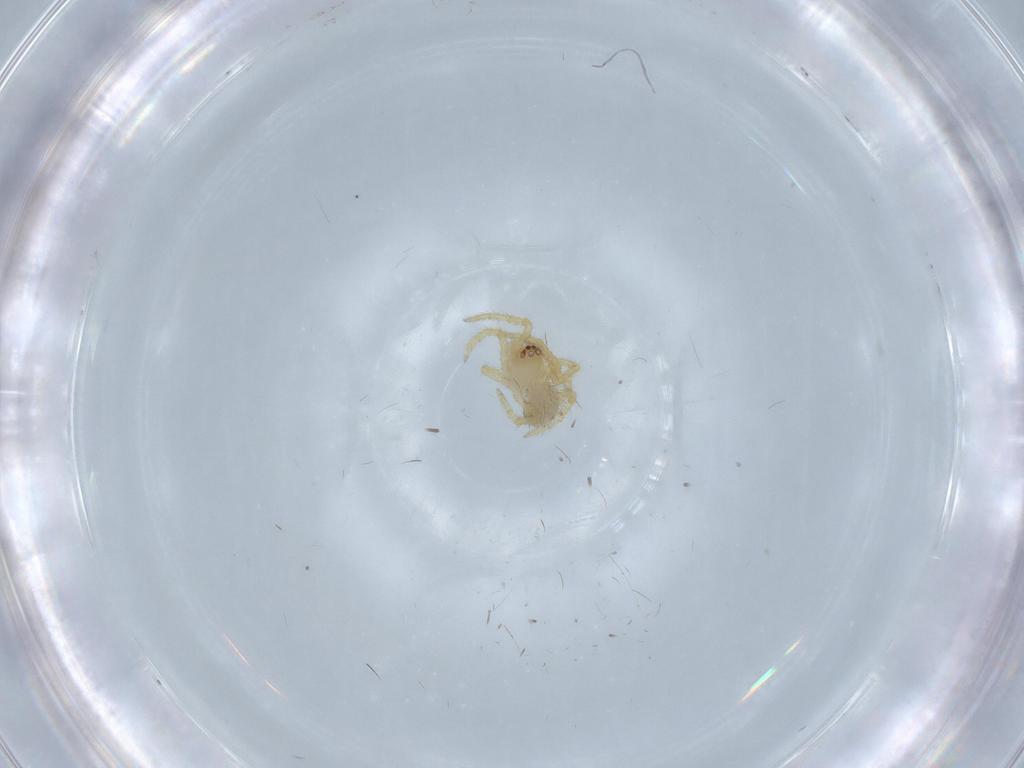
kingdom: Animalia
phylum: Arthropoda
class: Arachnida
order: Araneae
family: Theridiidae
